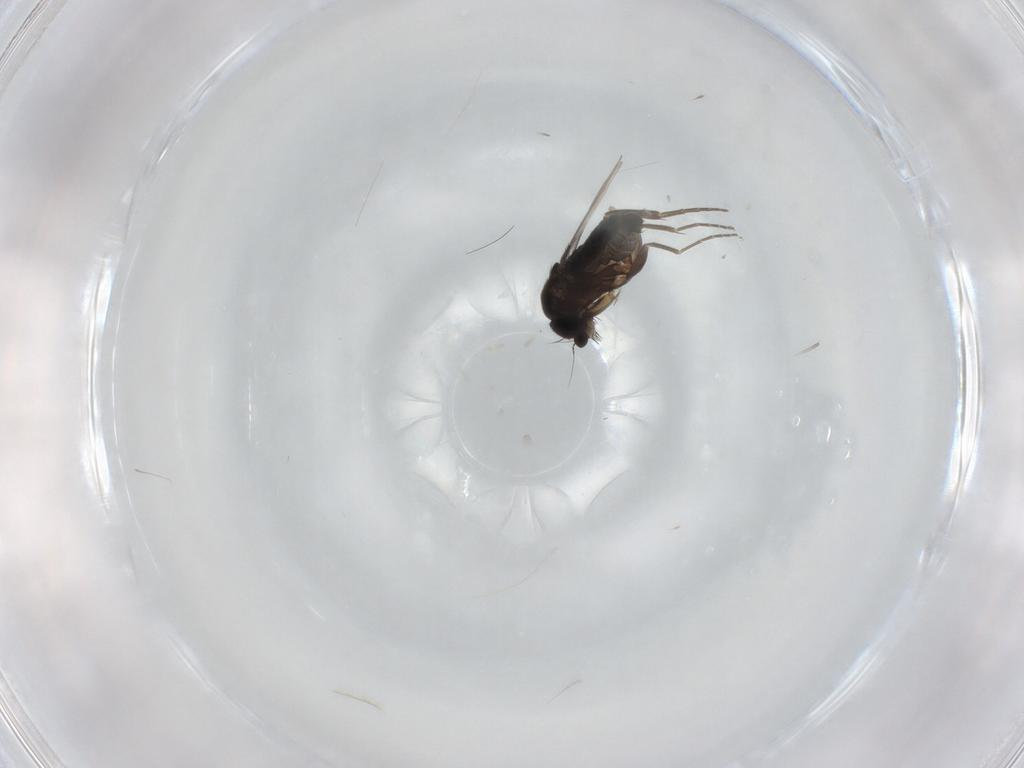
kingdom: Animalia
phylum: Arthropoda
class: Insecta
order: Diptera
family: Phoridae
